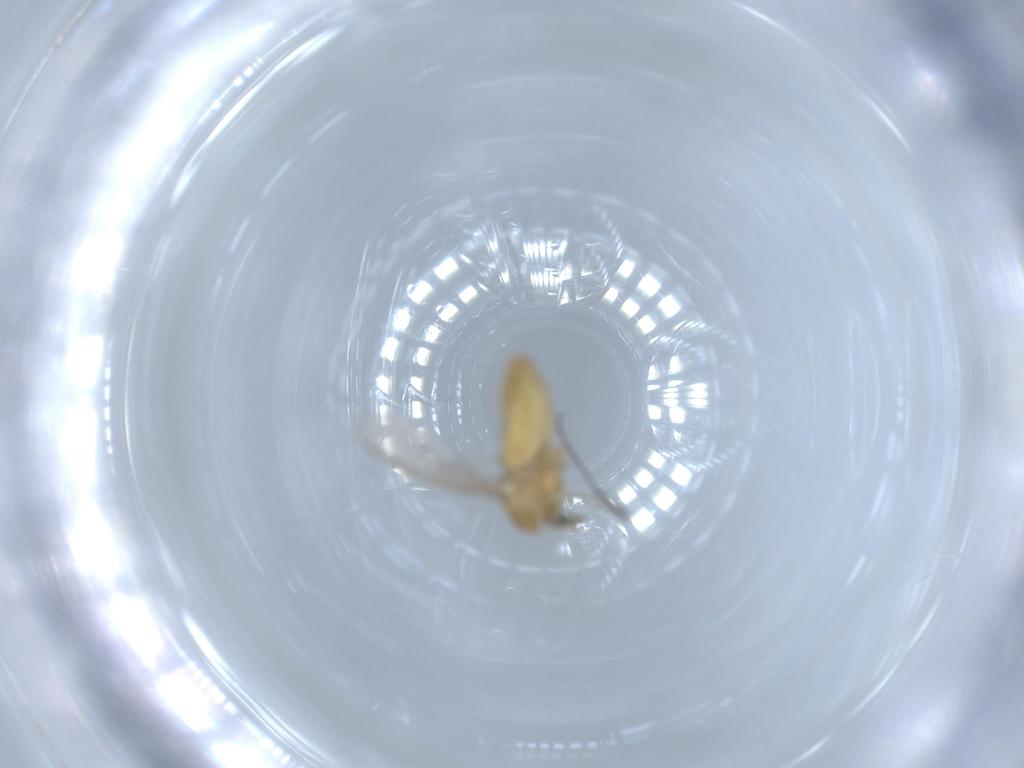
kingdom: Animalia
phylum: Arthropoda
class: Insecta
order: Diptera
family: Chironomidae
